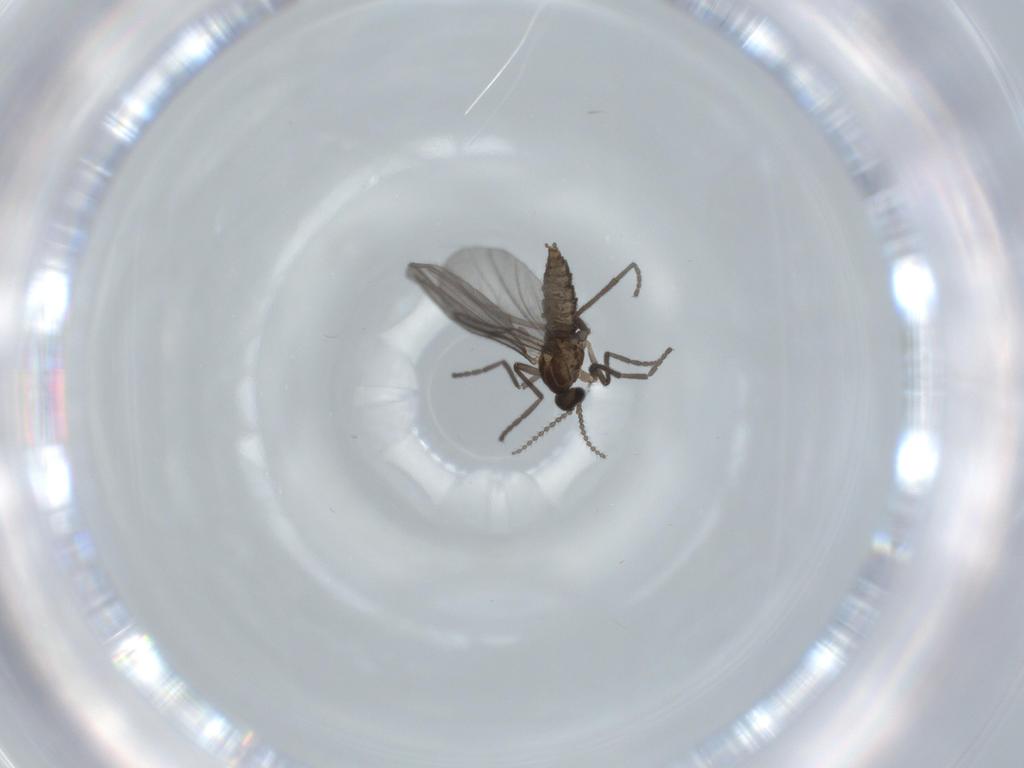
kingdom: Animalia
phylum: Arthropoda
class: Insecta
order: Diptera
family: Cecidomyiidae
